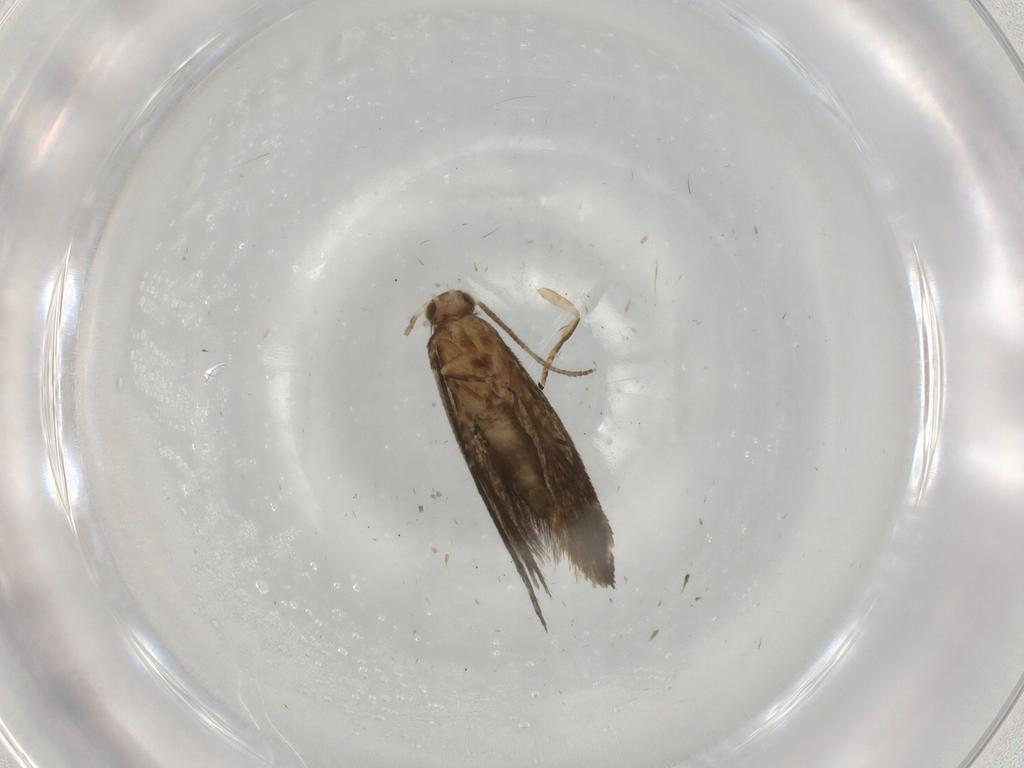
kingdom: Animalia
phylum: Arthropoda
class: Insecta
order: Lepidoptera
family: Tineidae
